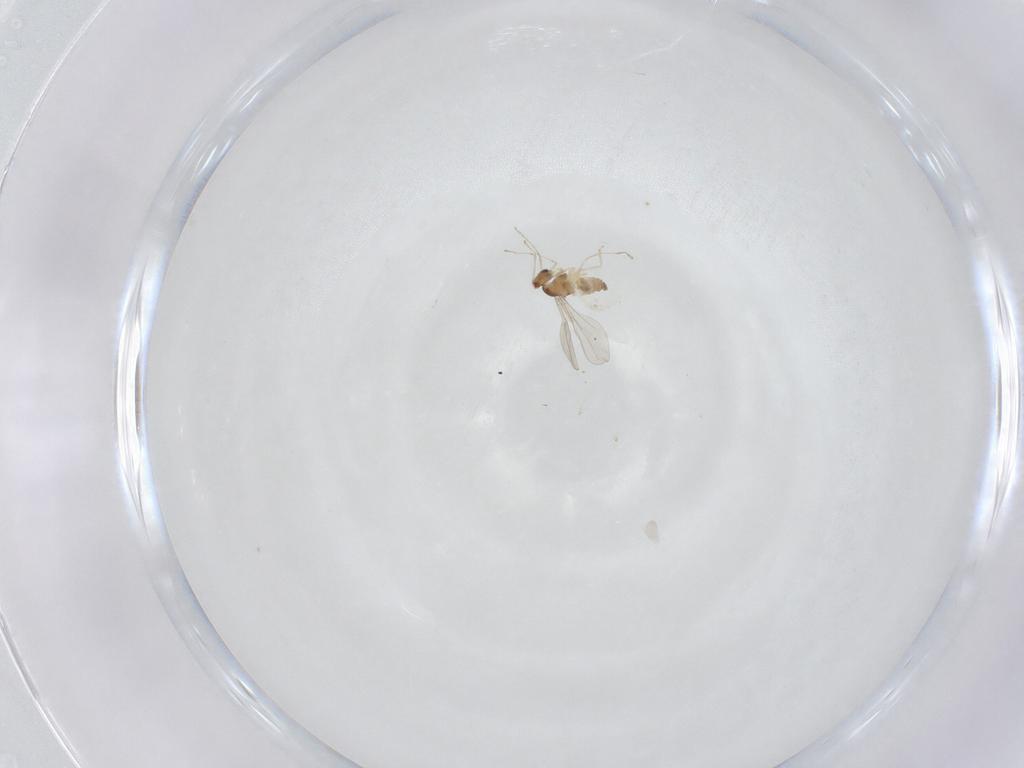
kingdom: Animalia
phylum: Arthropoda
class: Insecta
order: Diptera
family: Cecidomyiidae
